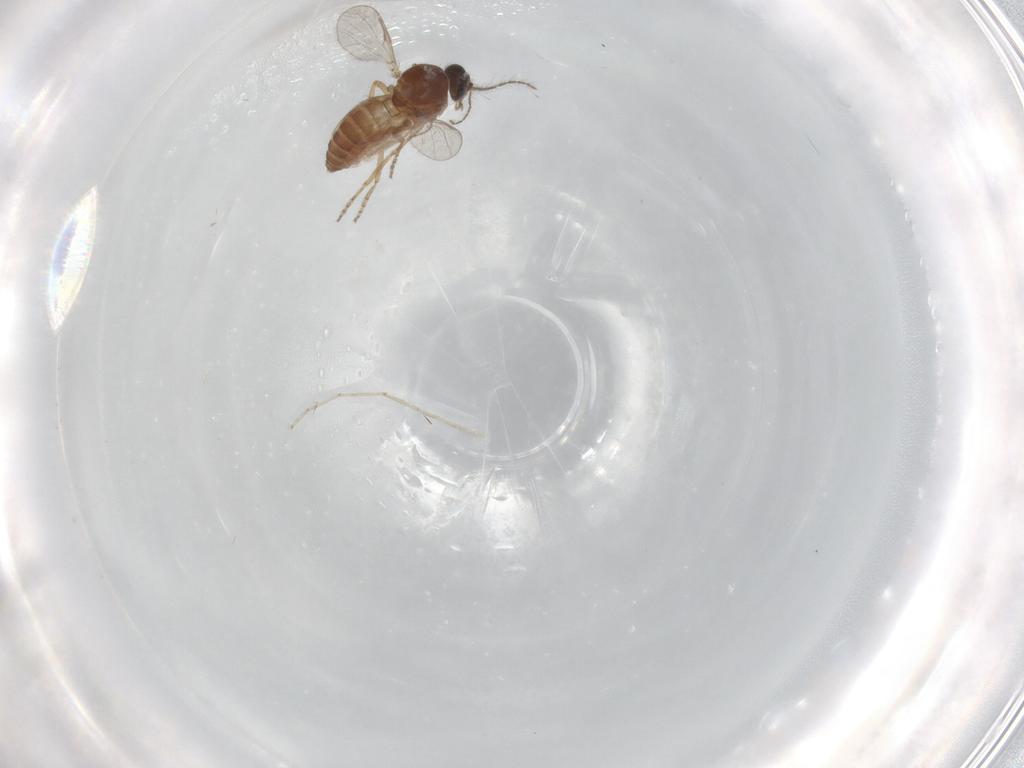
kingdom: Animalia
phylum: Arthropoda
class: Insecta
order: Diptera
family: Ceratopogonidae
